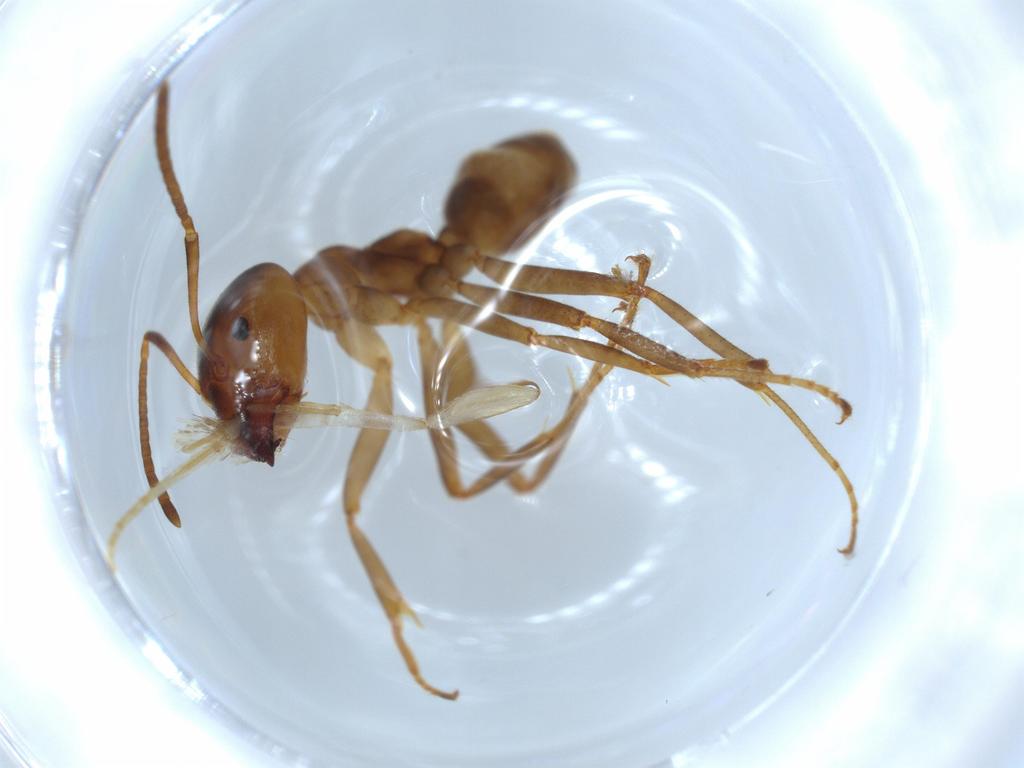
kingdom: Animalia
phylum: Arthropoda
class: Insecta
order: Hymenoptera
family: Formicidae
